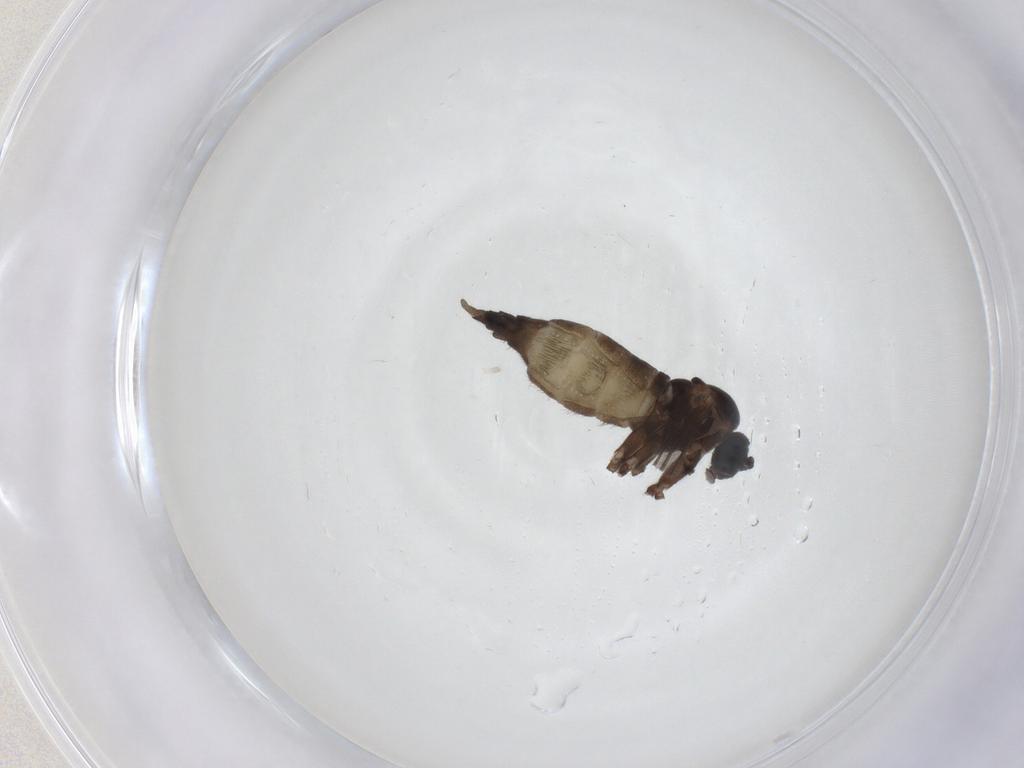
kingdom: Animalia
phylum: Arthropoda
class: Insecta
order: Diptera
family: Sciaridae
